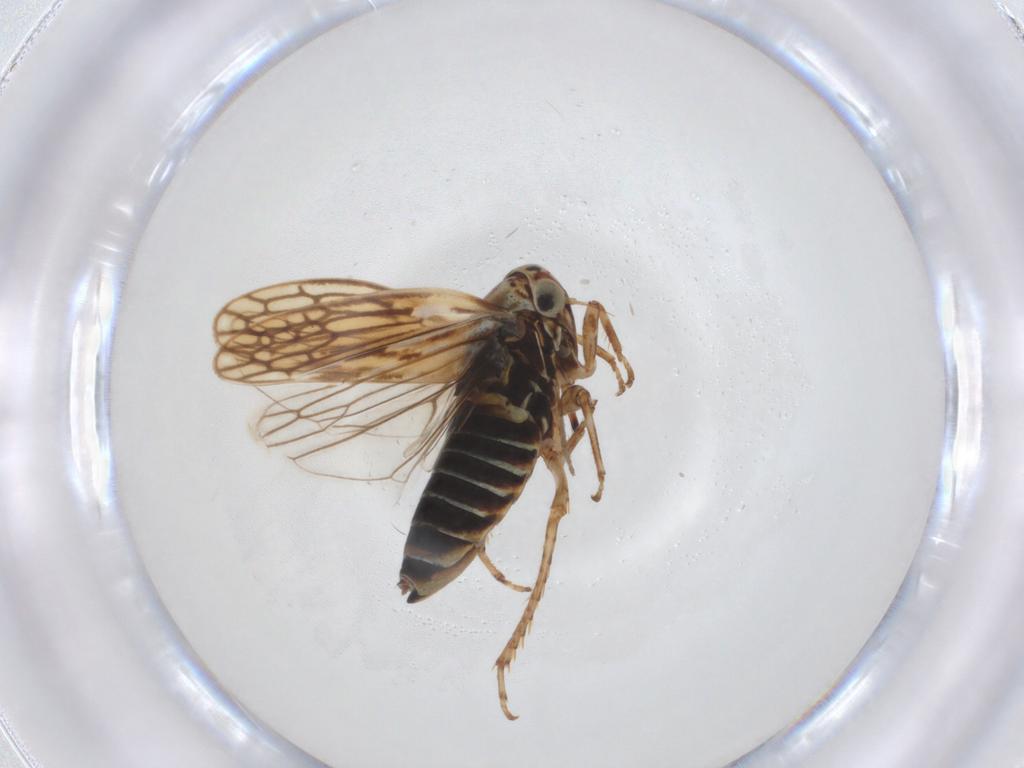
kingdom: Animalia
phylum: Arthropoda
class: Insecta
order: Hemiptera
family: Cicadellidae
